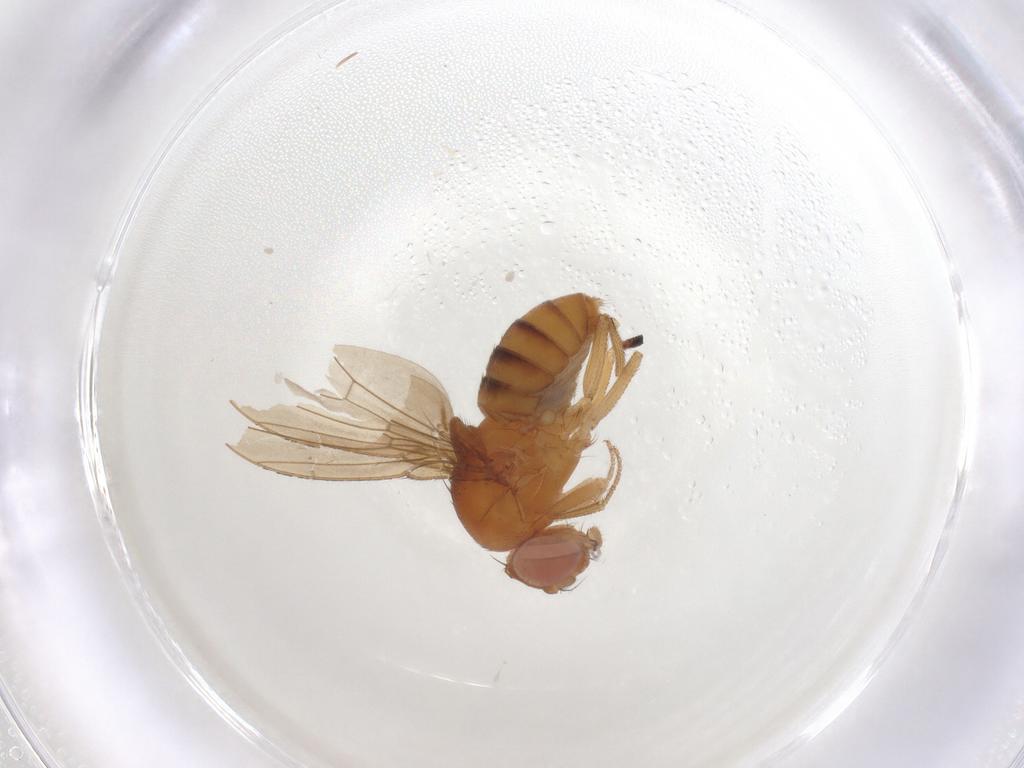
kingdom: Animalia
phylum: Arthropoda
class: Insecta
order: Diptera
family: Drosophilidae
